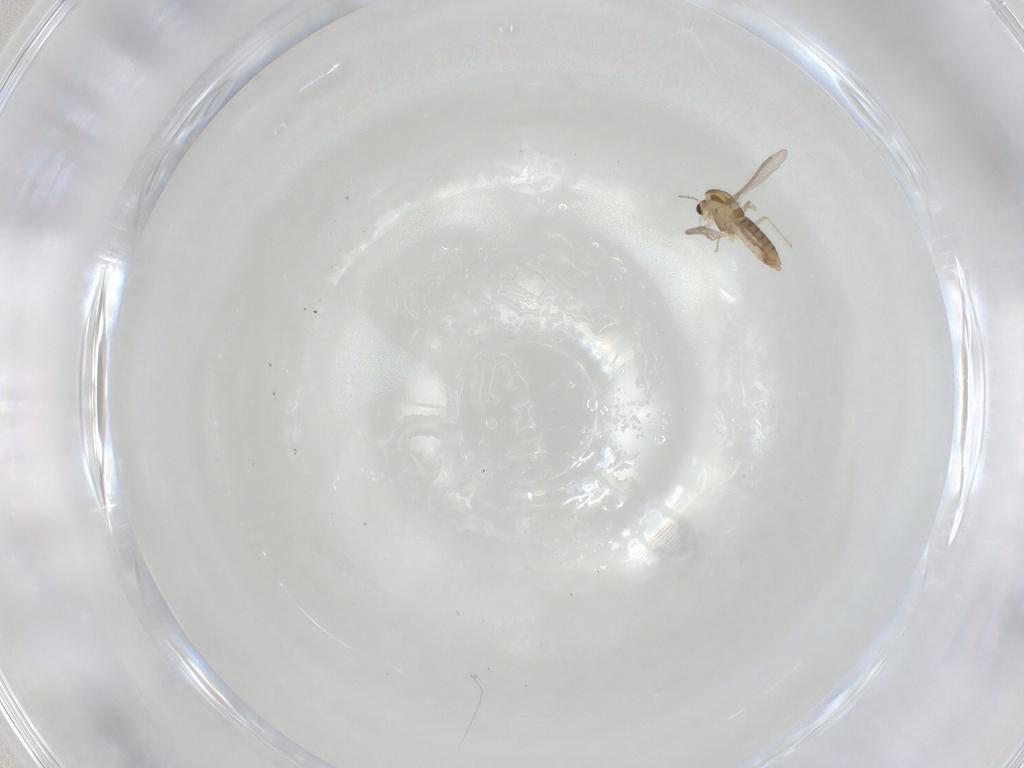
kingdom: Animalia
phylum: Arthropoda
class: Insecta
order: Diptera
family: Chironomidae
